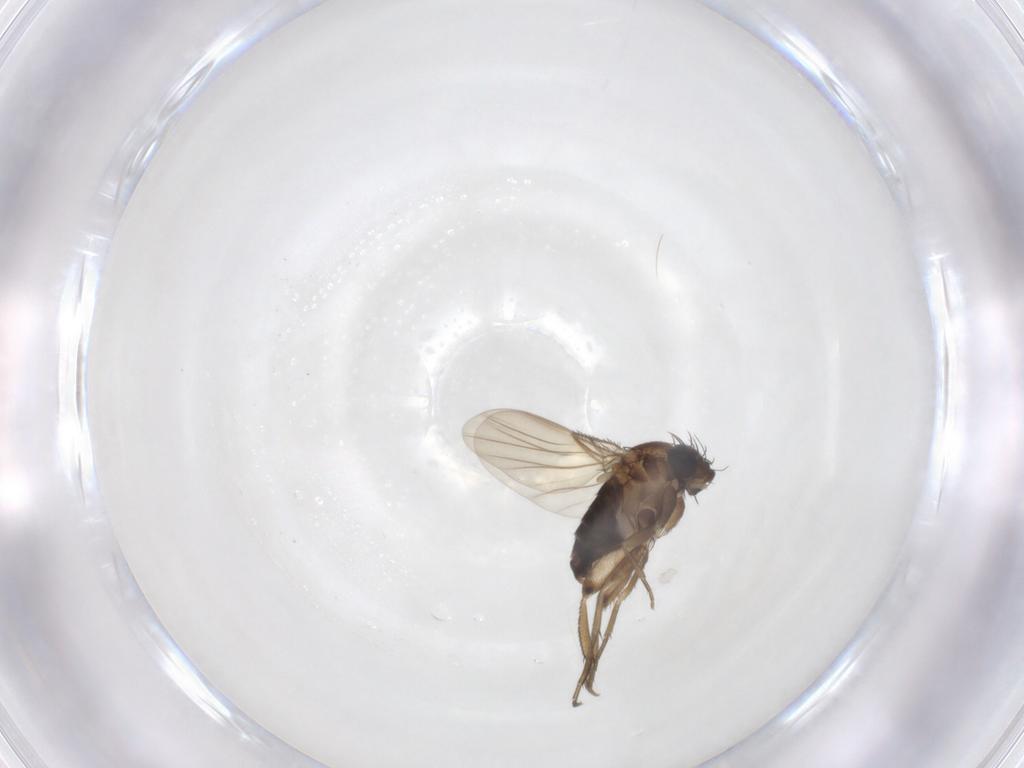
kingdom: Animalia
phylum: Arthropoda
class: Insecta
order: Diptera
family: Phoridae
